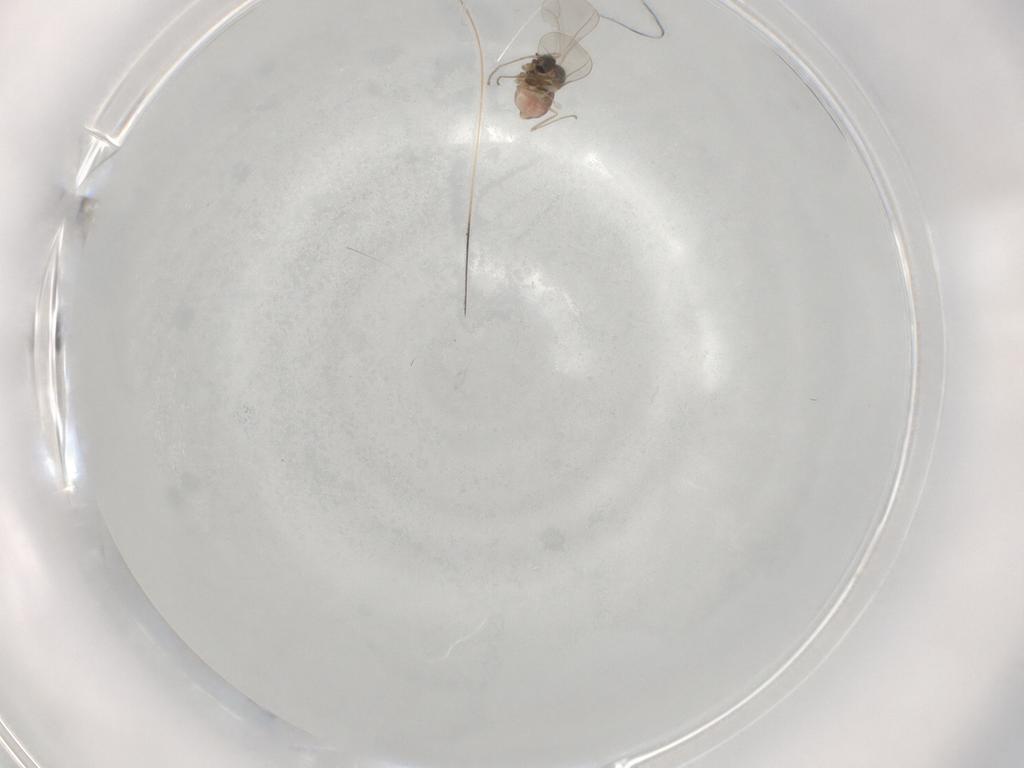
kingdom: Animalia
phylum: Arthropoda
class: Insecta
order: Diptera
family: Cecidomyiidae
